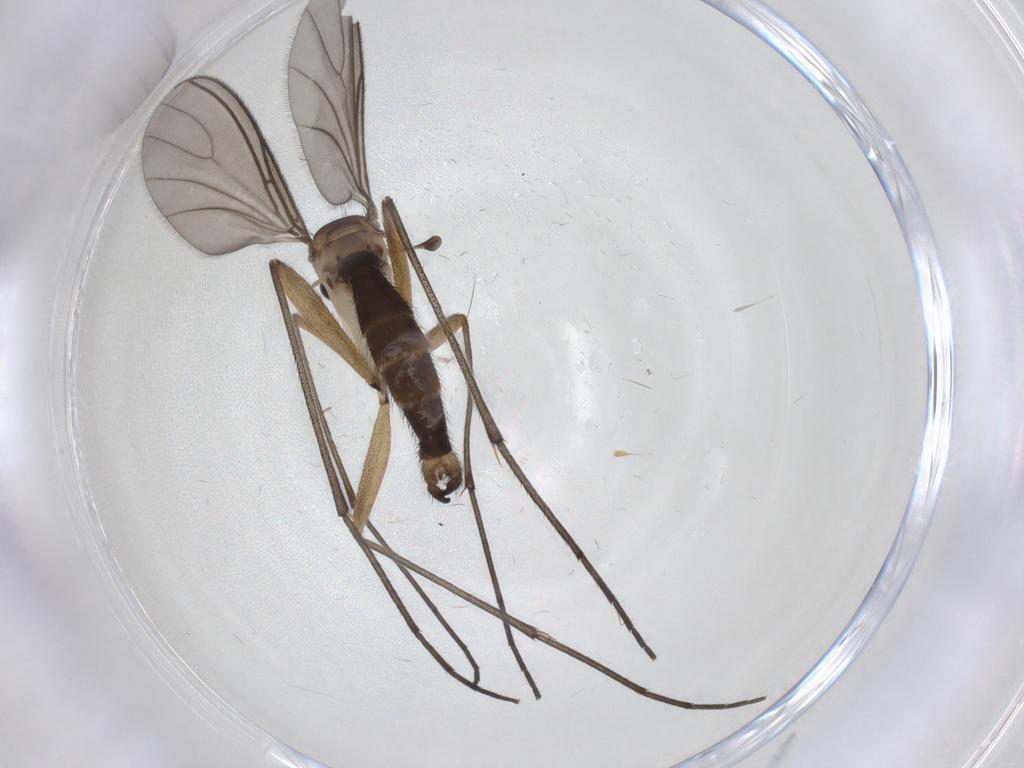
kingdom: Animalia
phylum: Arthropoda
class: Insecta
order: Diptera
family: Sciaridae
